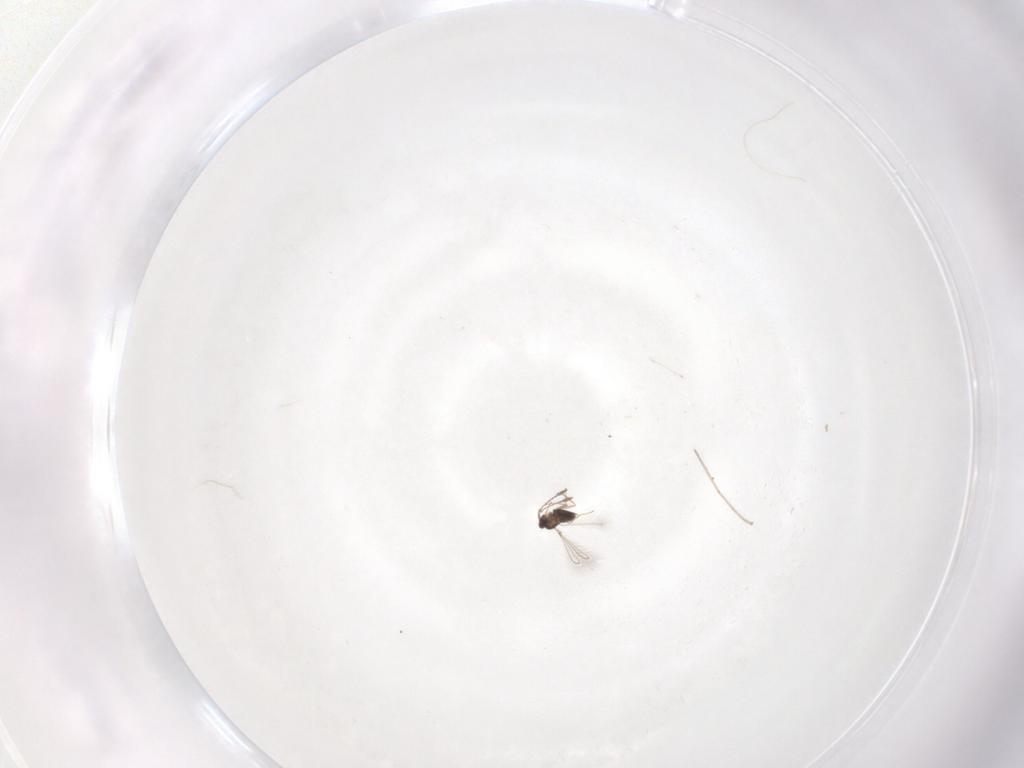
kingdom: Animalia
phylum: Arthropoda
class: Insecta
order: Hymenoptera
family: Mymaridae
